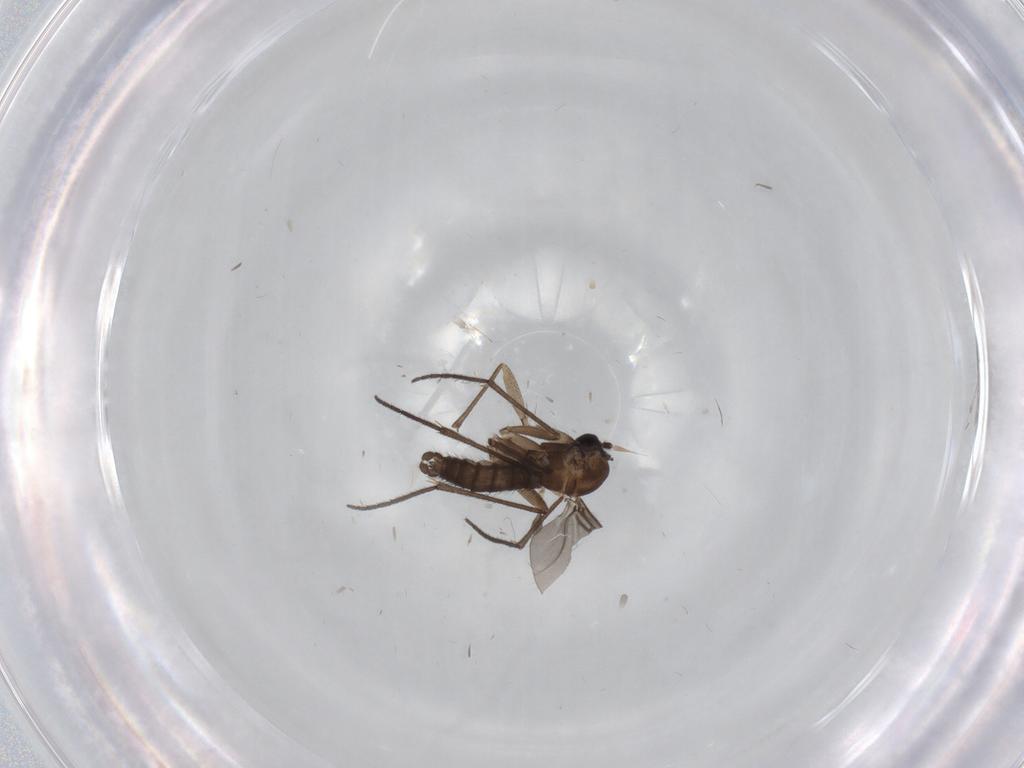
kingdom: Animalia
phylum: Arthropoda
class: Insecta
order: Diptera
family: Sciaridae
